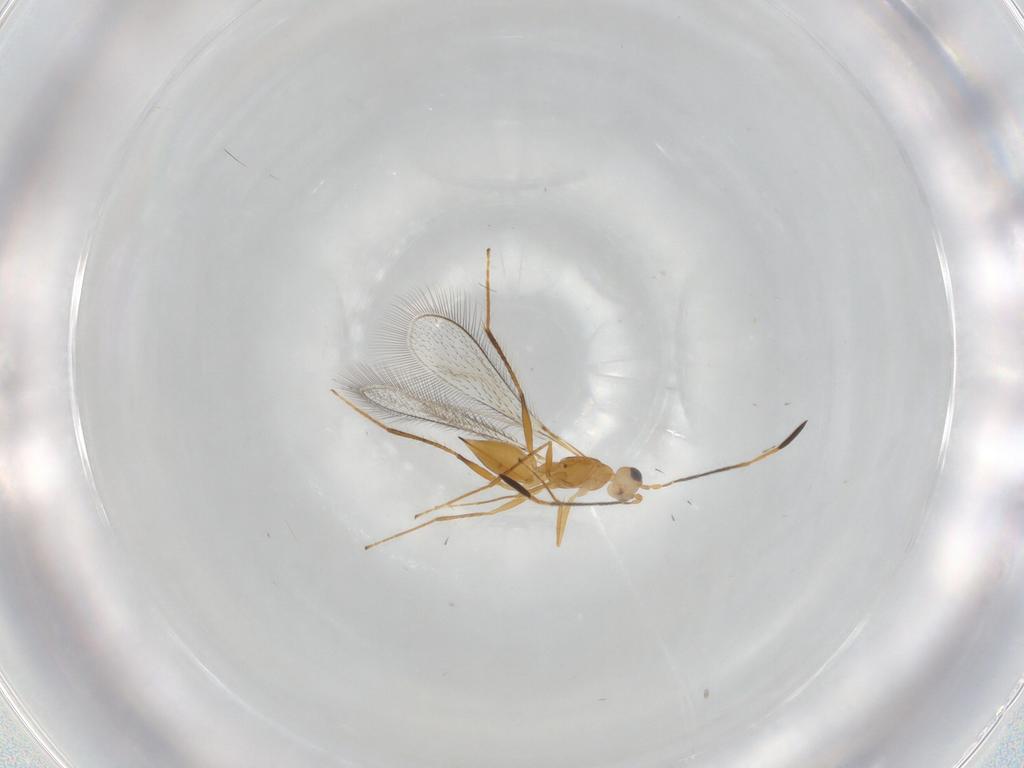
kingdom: Animalia
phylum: Arthropoda
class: Insecta
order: Hymenoptera
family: Mymaridae
